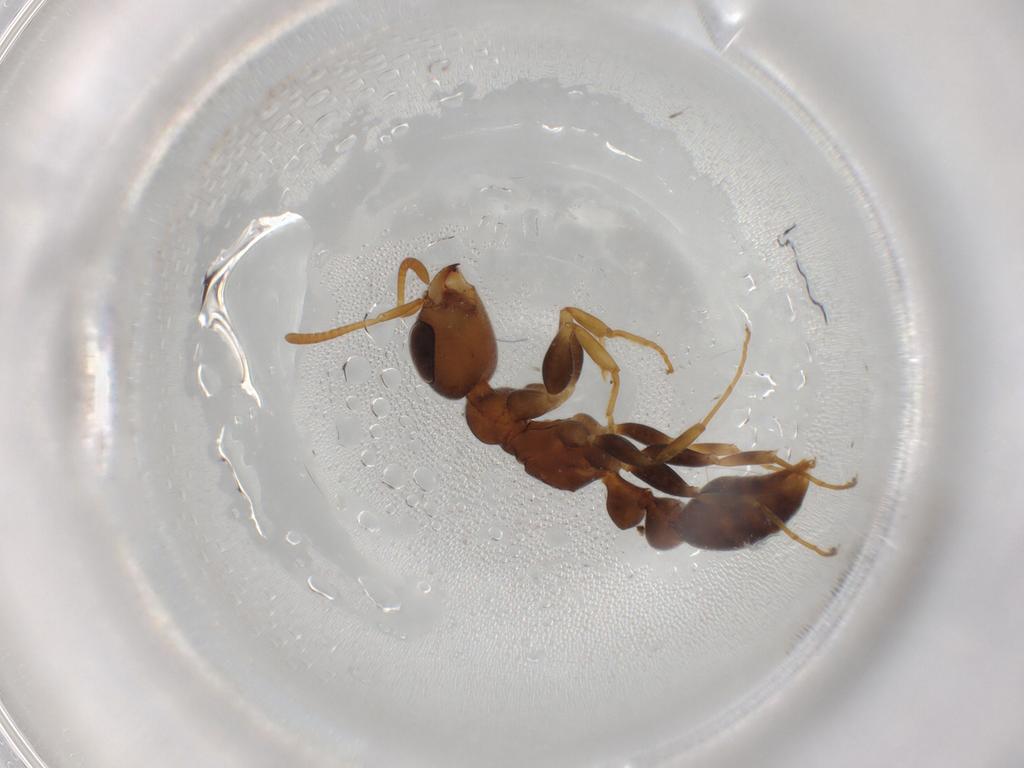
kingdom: Animalia
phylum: Arthropoda
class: Insecta
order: Hymenoptera
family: Formicidae
